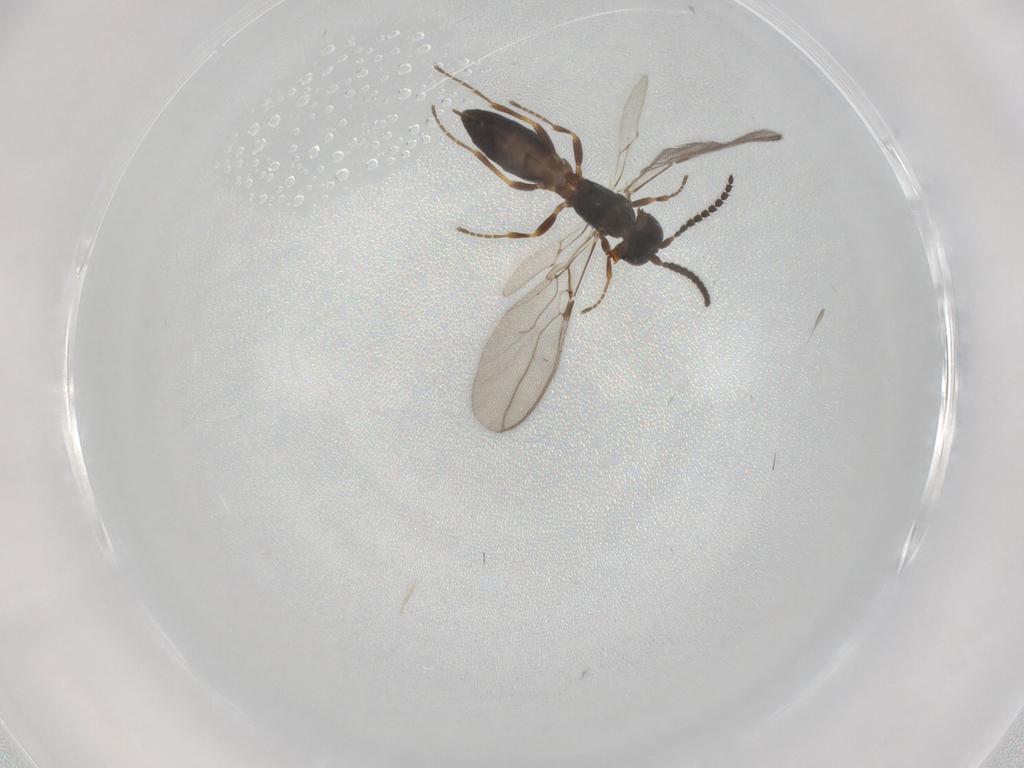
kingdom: Animalia
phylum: Arthropoda
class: Insecta
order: Hymenoptera
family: Braconidae
